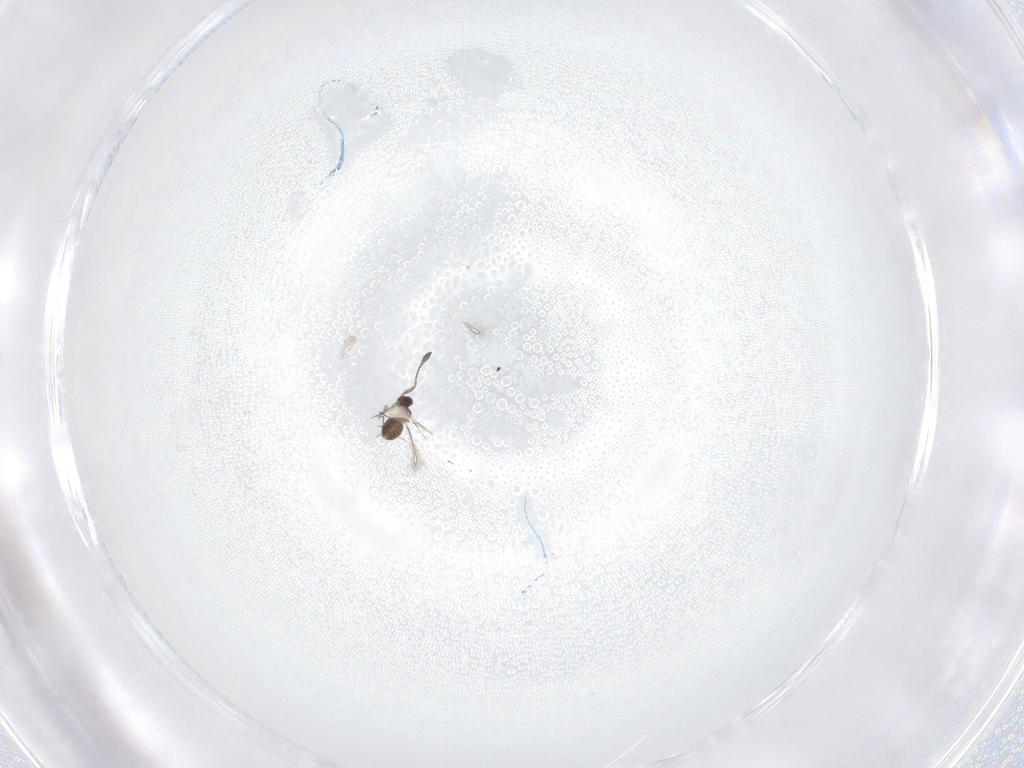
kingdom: Animalia
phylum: Arthropoda
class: Insecta
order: Diptera
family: Phoridae
